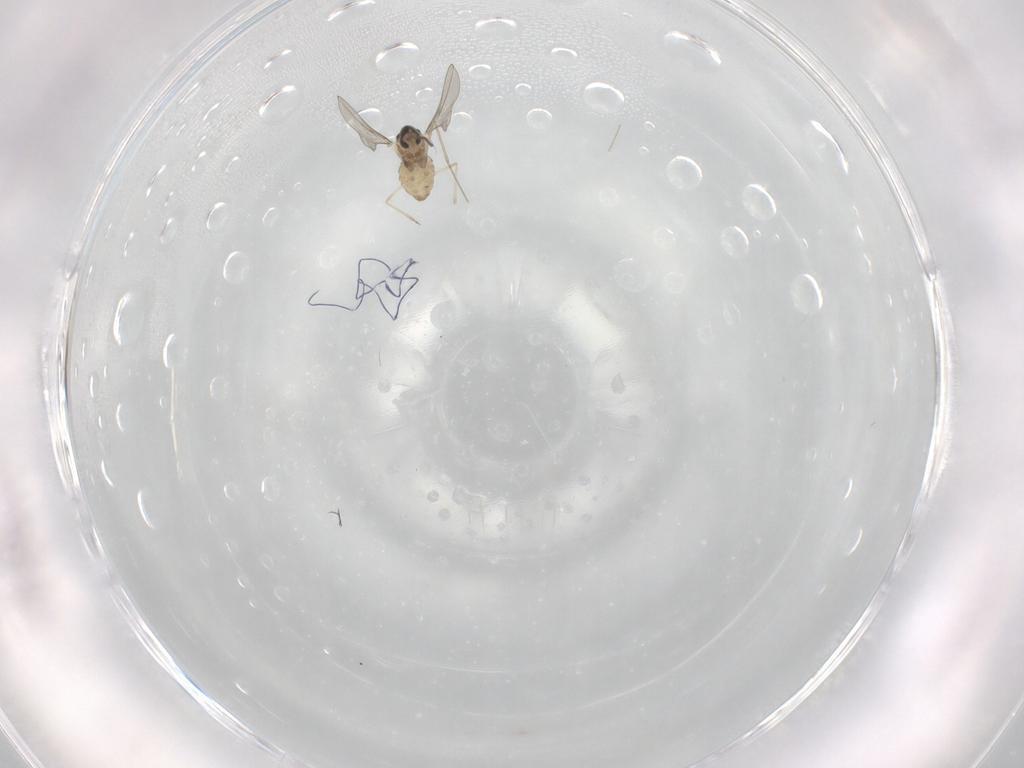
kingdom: Animalia
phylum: Arthropoda
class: Insecta
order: Diptera
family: Cecidomyiidae
